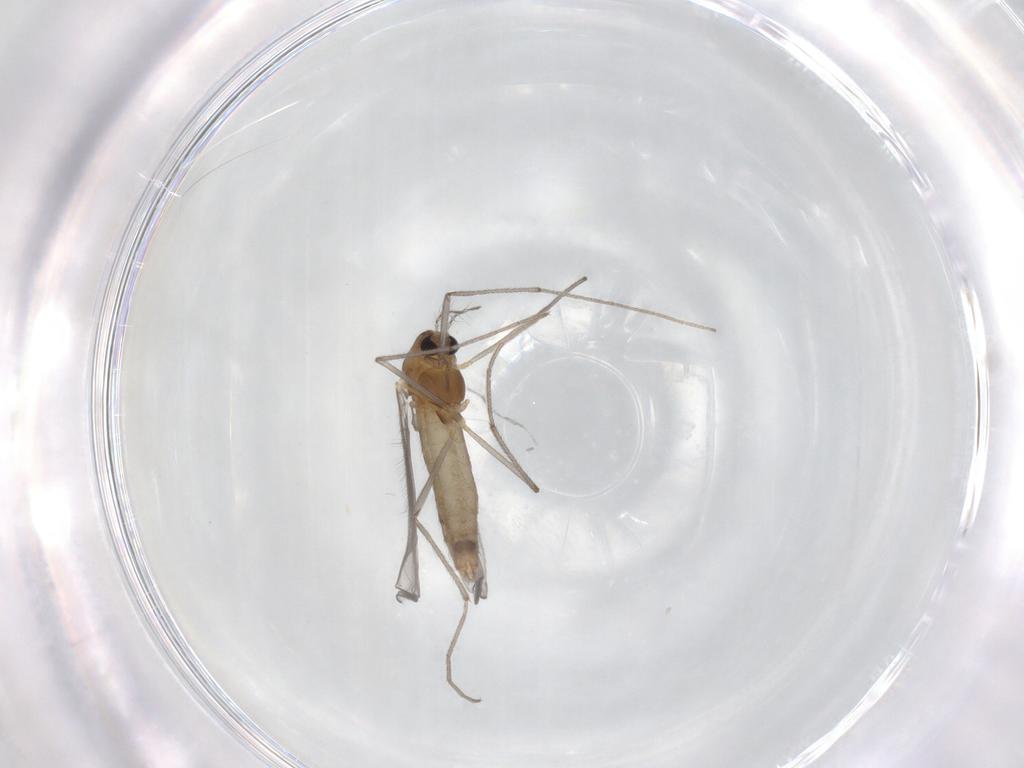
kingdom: Animalia
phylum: Arthropoda
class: Insecta
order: Diptera
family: Chironomidae
